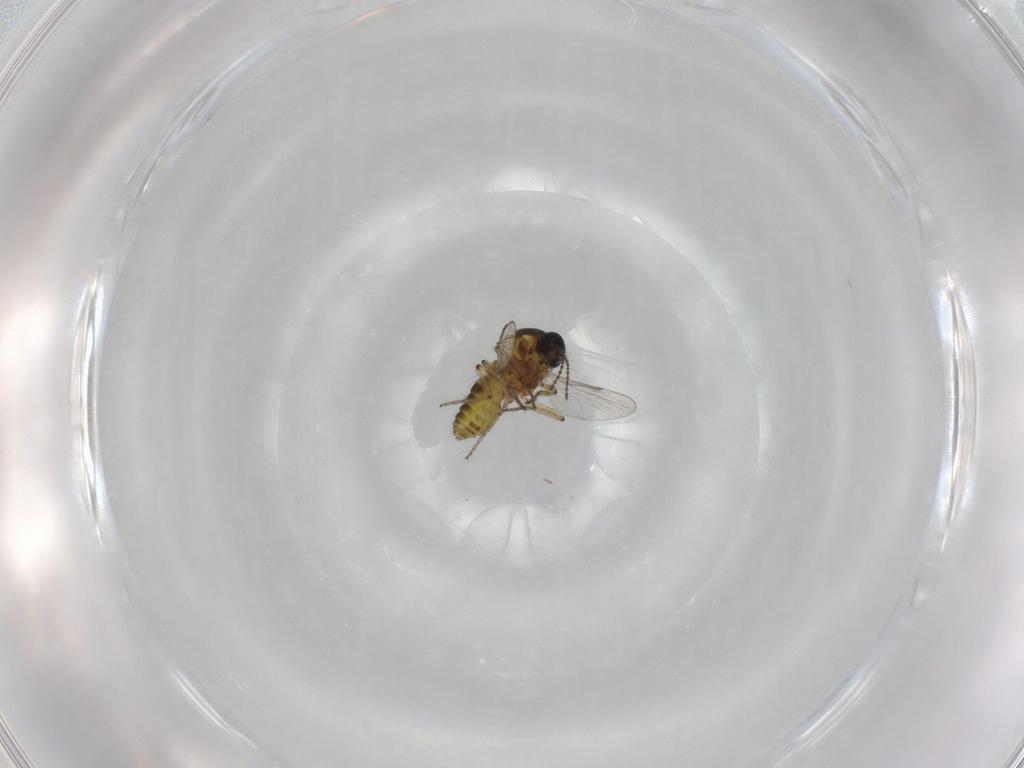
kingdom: Animalia
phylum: Arthropoda
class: Insecta
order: Diptera
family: Ceratopogonidae
